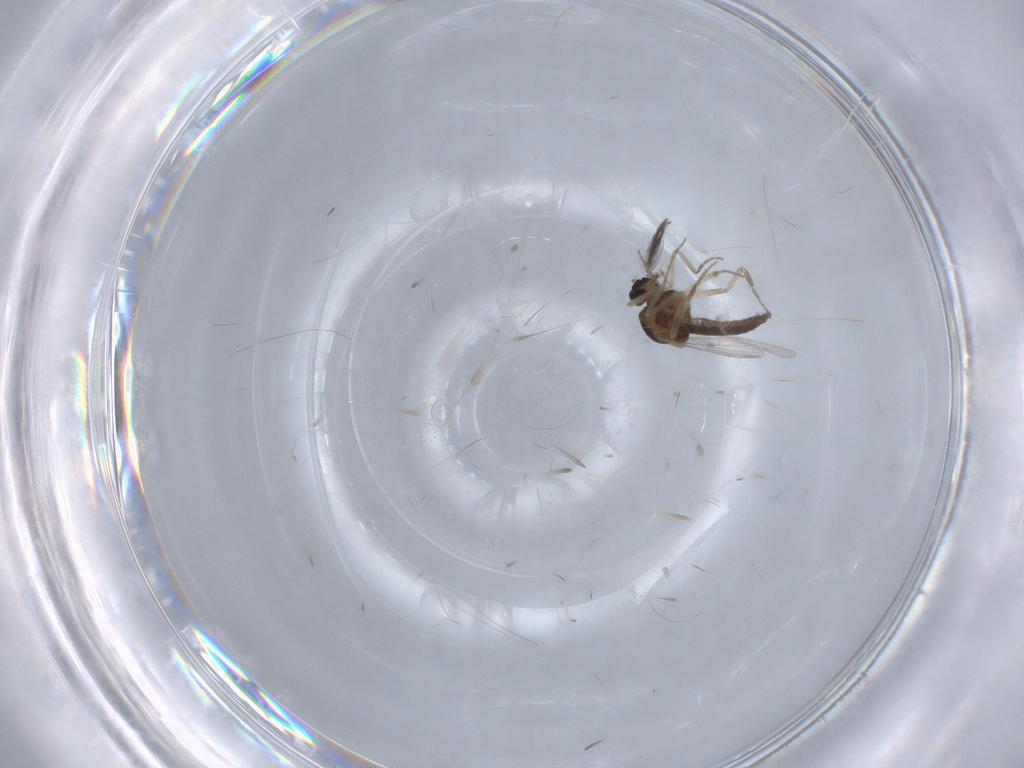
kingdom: Animalia
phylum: Arthropoda
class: Insecta
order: Diptera
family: Ceratopogonidae
